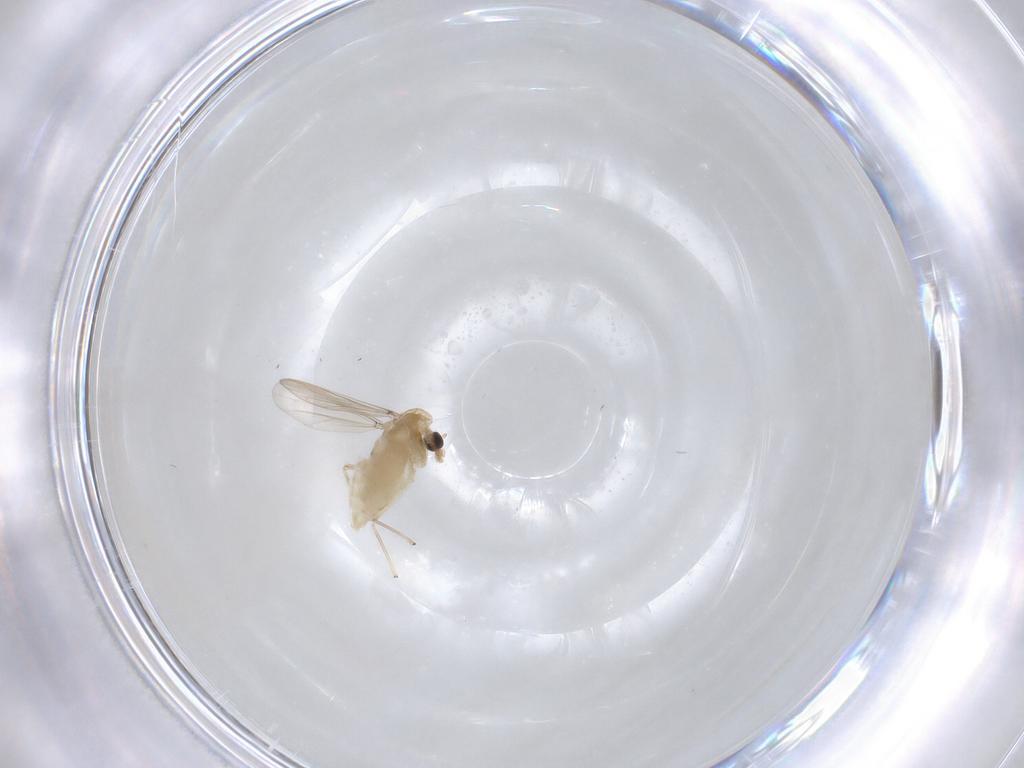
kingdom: Animalia
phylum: Arthropoda
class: Insecta
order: Diptera
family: Chironomidae
